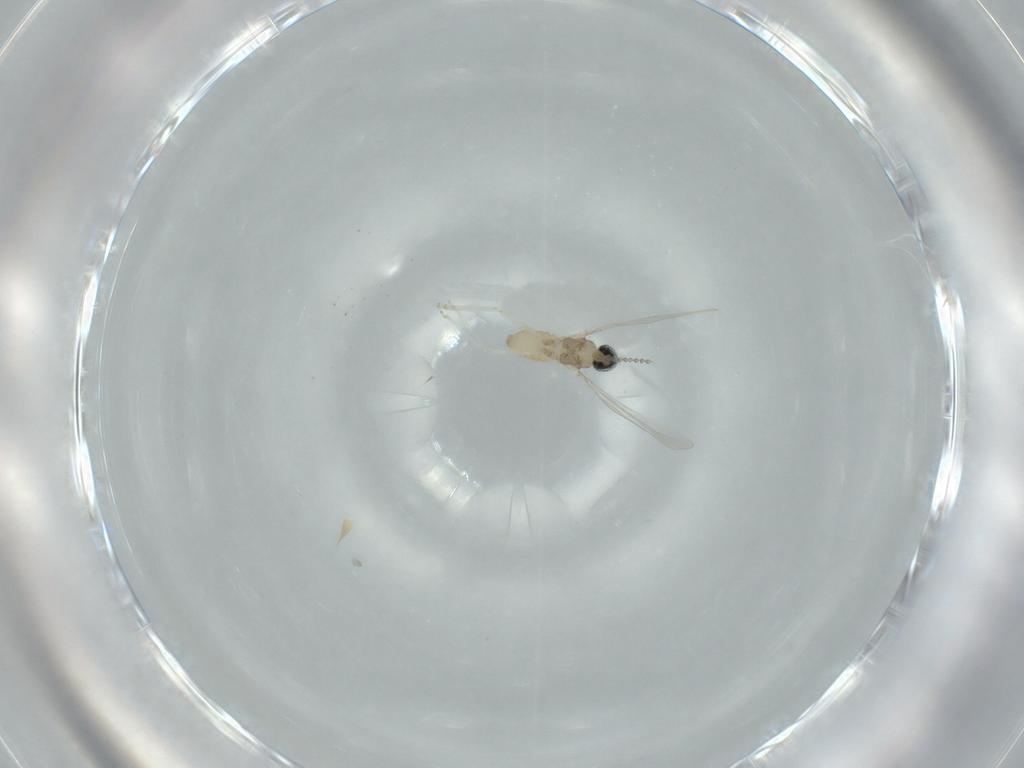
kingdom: Animalia
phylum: Arthropoda
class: Insecta
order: Diptera
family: Cecidomyiidae
